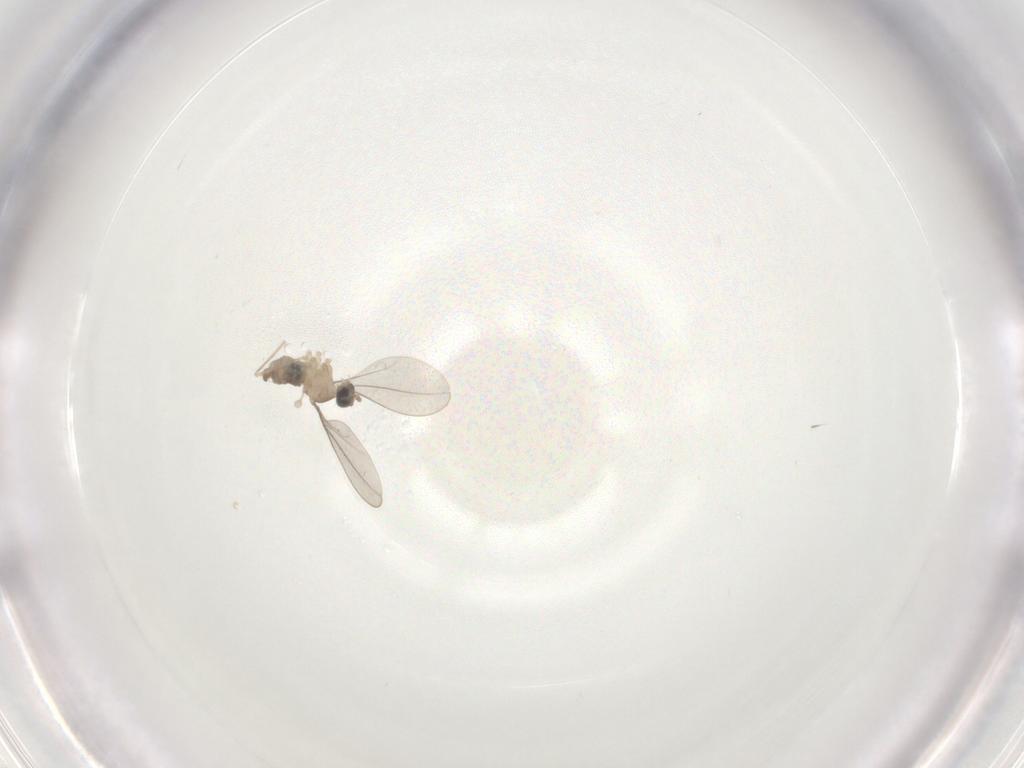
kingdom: Animalia
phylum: Arthropoda
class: Insecta
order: Diptera
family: Cecidomyiidae
